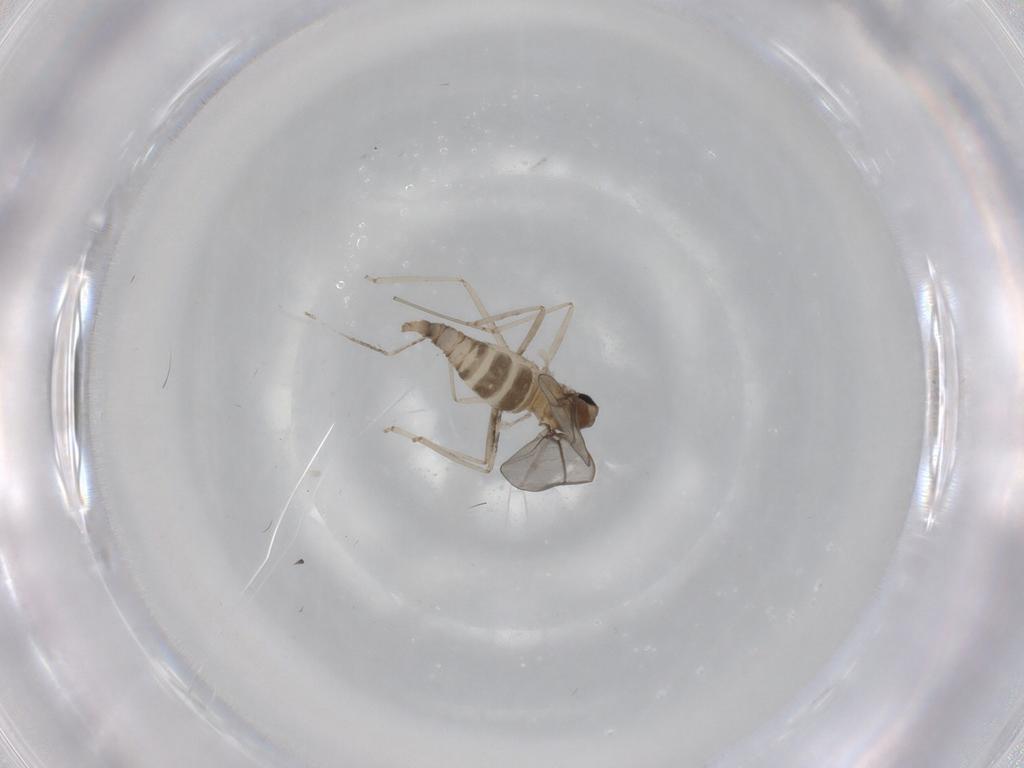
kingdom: Animalia
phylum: Arthropoda
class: Insecta
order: Diptera
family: Cecidomyiidae
